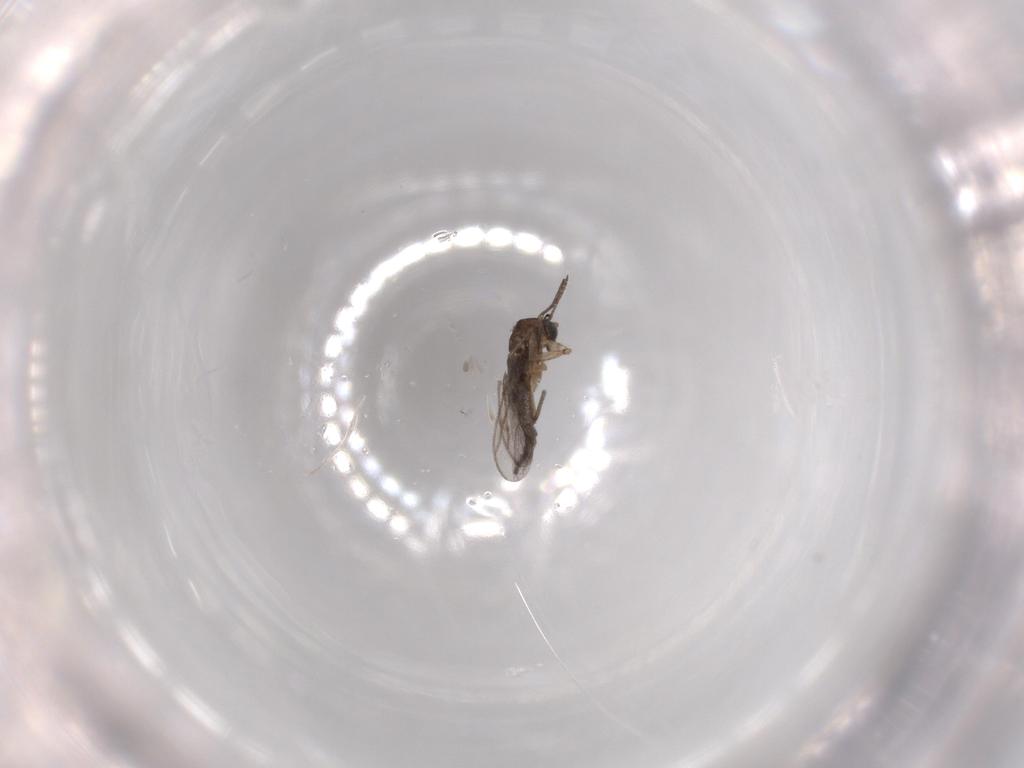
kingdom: Animalia
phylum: Arthropoda
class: Insecta
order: Diptera
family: Sciaridae
